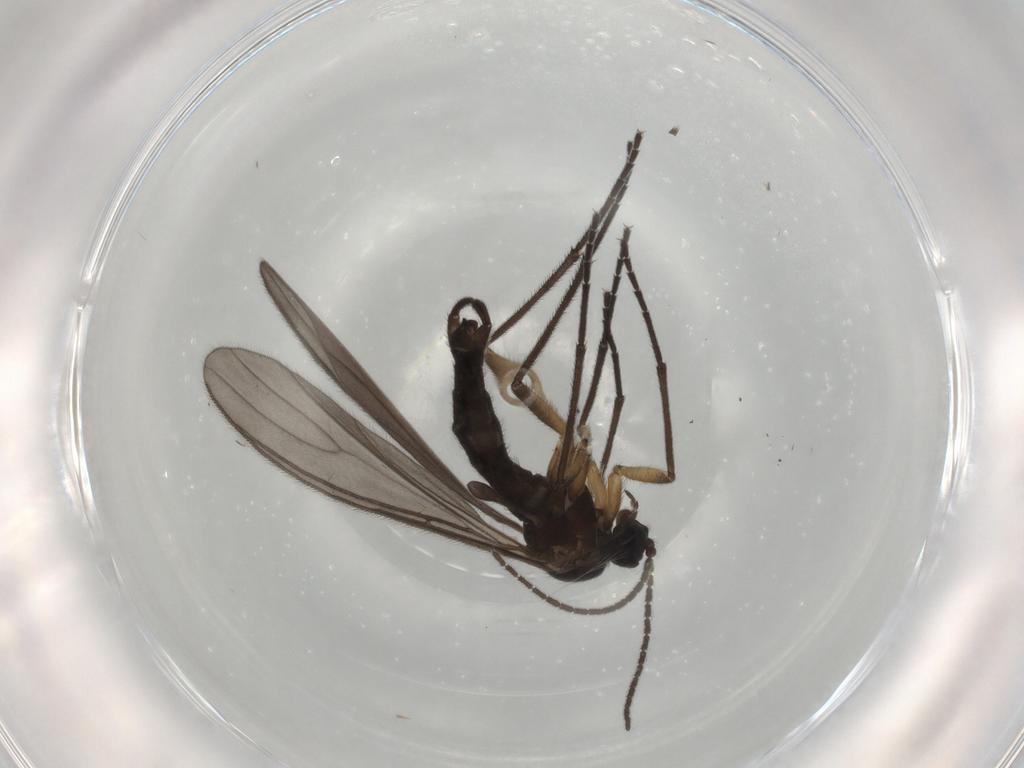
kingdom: Animalia
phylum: Arthropoda
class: Insecta
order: Diptera
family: Sciaridae
